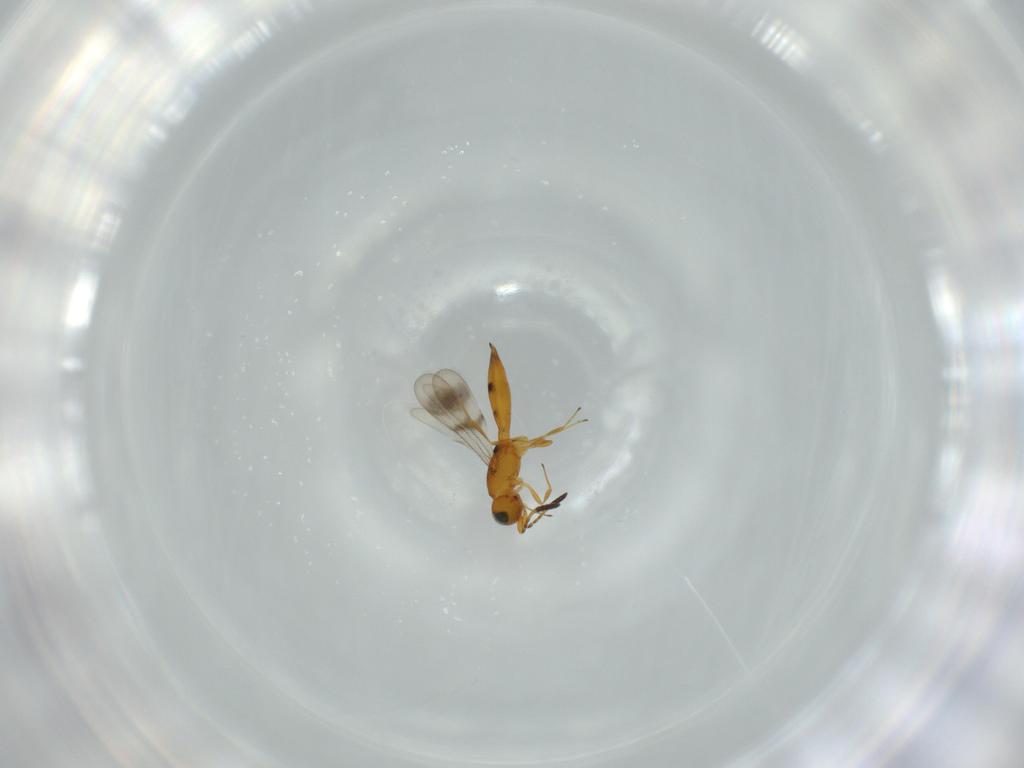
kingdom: Animalia
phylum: Arthropoda
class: Insecta
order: Hymenoptera
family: Scelionidae
